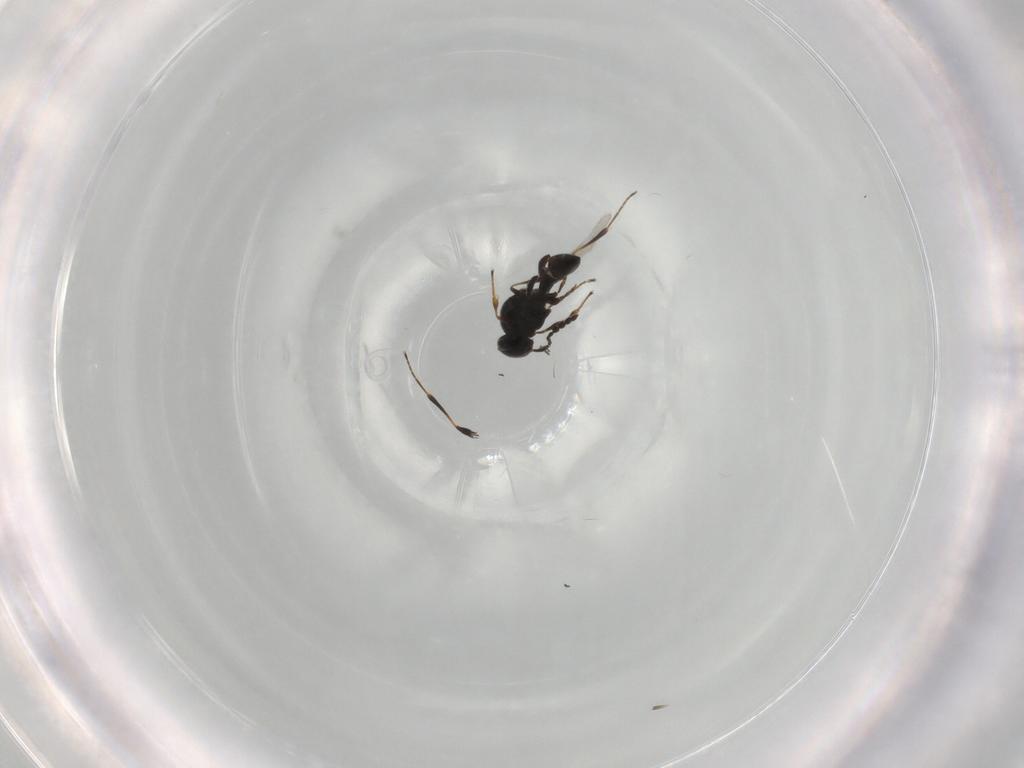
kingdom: Animalia
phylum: Arthropoda
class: Insecta
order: Hymenoptera
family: Platygastridae
